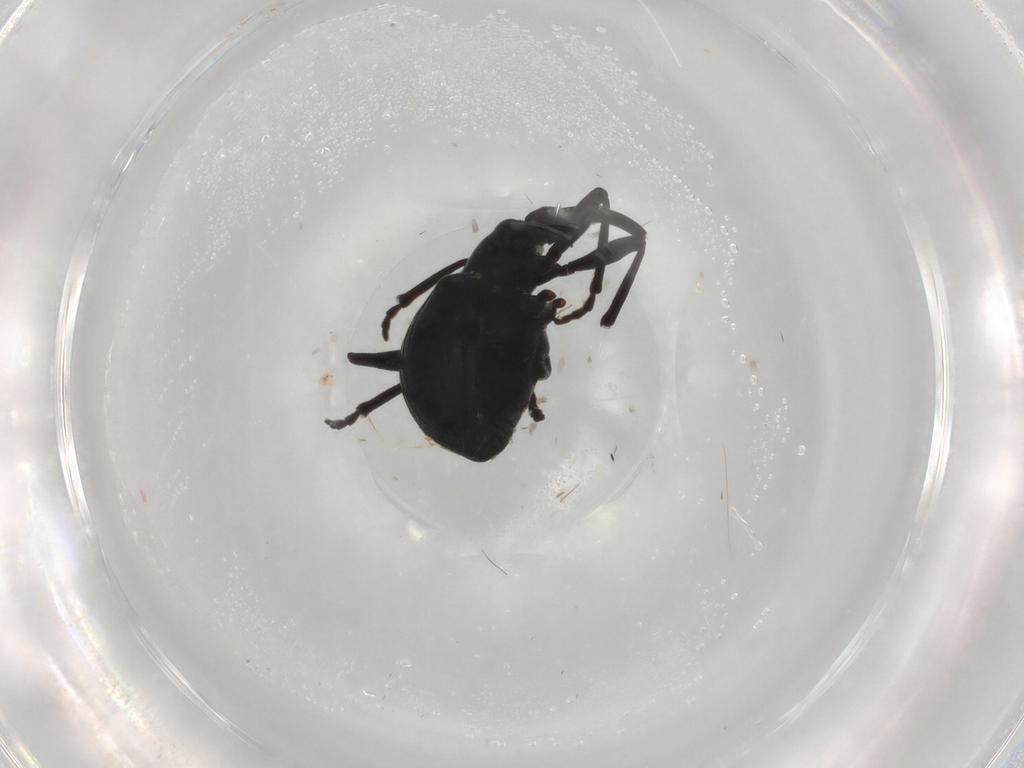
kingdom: Animalia
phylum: Arthropoda
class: Insecta
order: Coleoptera
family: Apionidae
